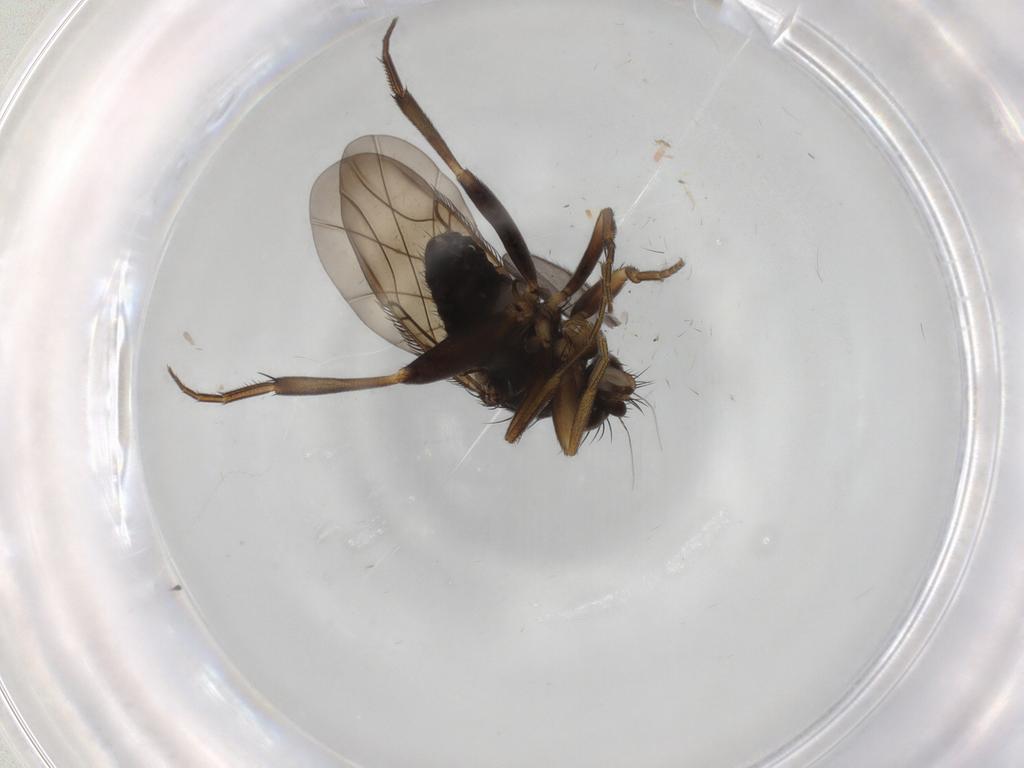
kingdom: Animalia
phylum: Arthropoda
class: Insecta
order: Diptera
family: Phoridae
